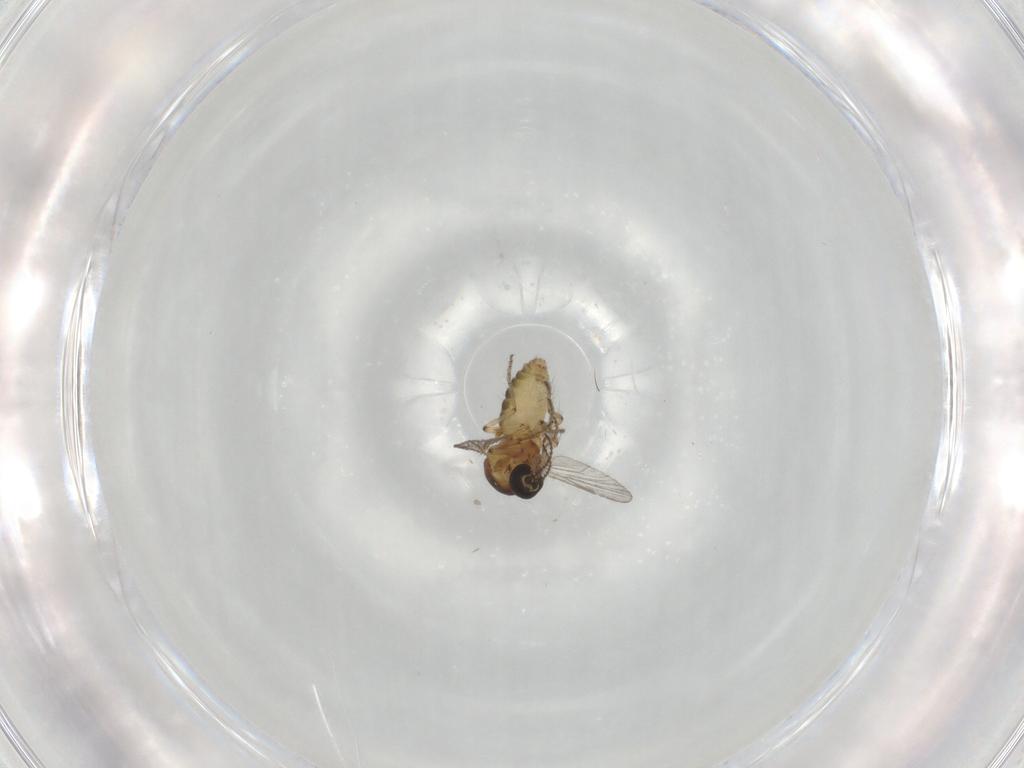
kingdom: Animalia
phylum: Arthropoda
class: Insecta
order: Diptera
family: Ceratopogonidae
